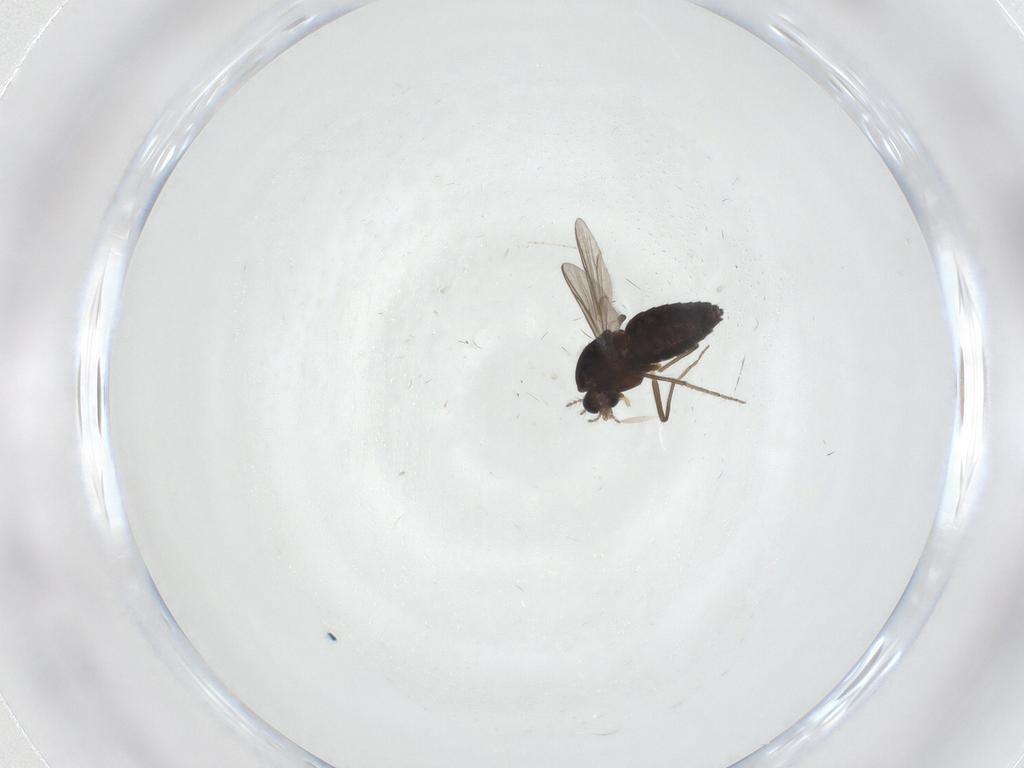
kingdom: Animalia
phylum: Arthropoda
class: Insecta
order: Diptera
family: Chironomidae
